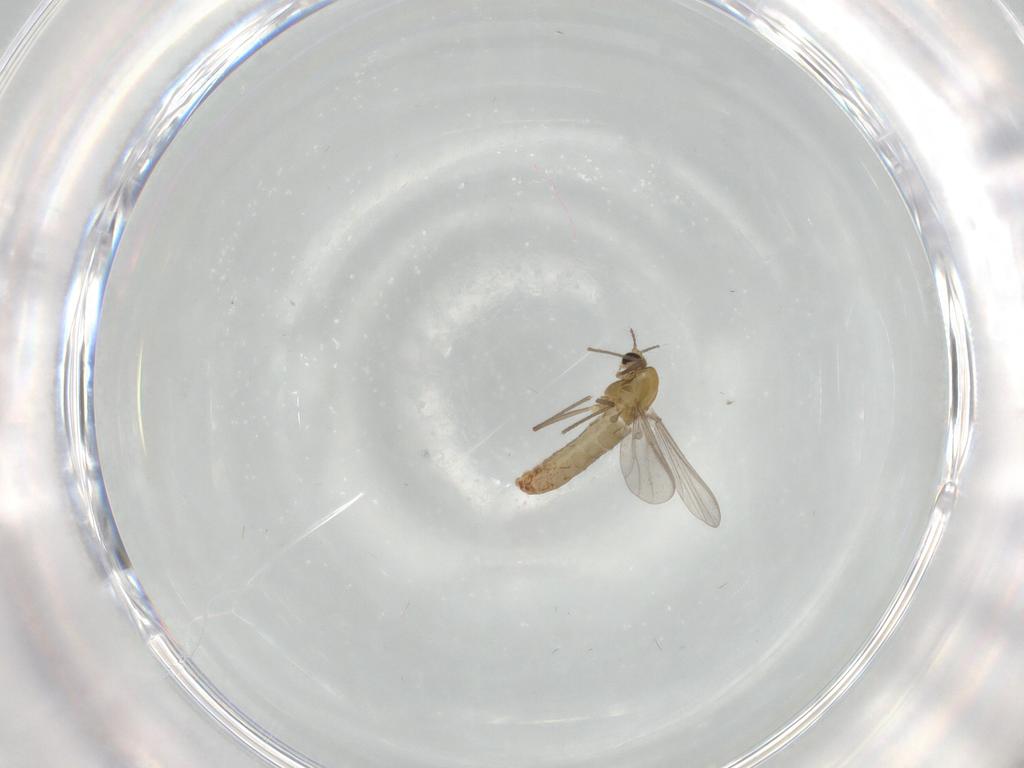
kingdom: Animalia
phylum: Arthropoda
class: Insecta
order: Diptera
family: Chironomidae
